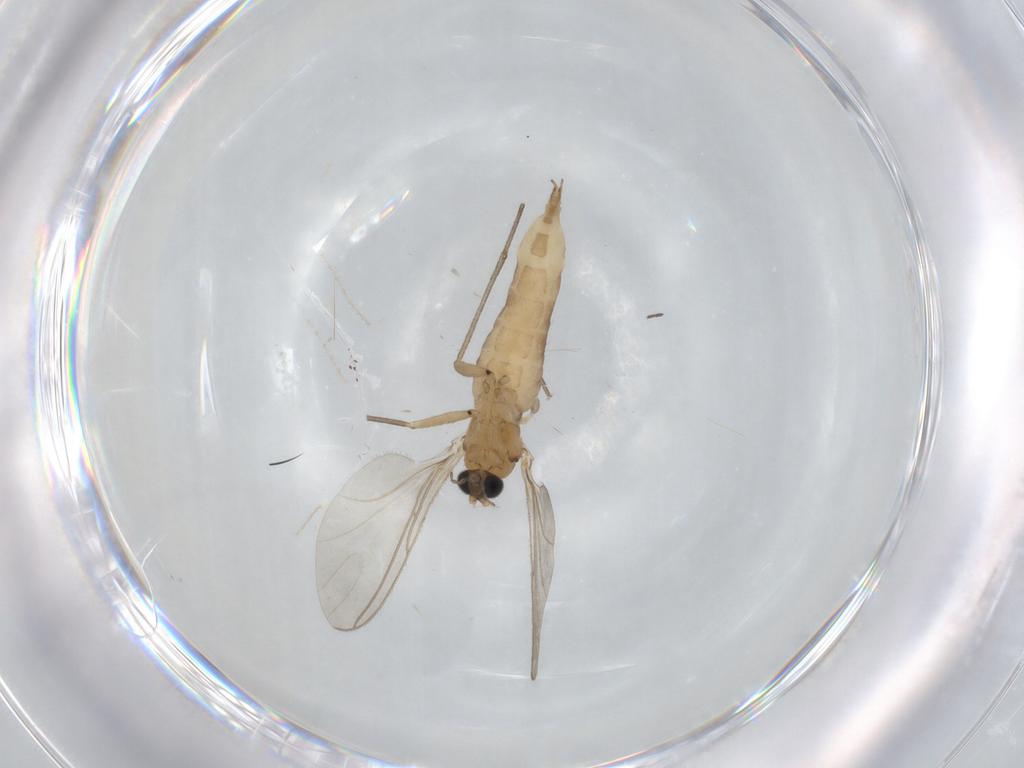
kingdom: Animalia
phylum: Arthropoda
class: Insecta
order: Diptera
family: Cecidomyiidae
